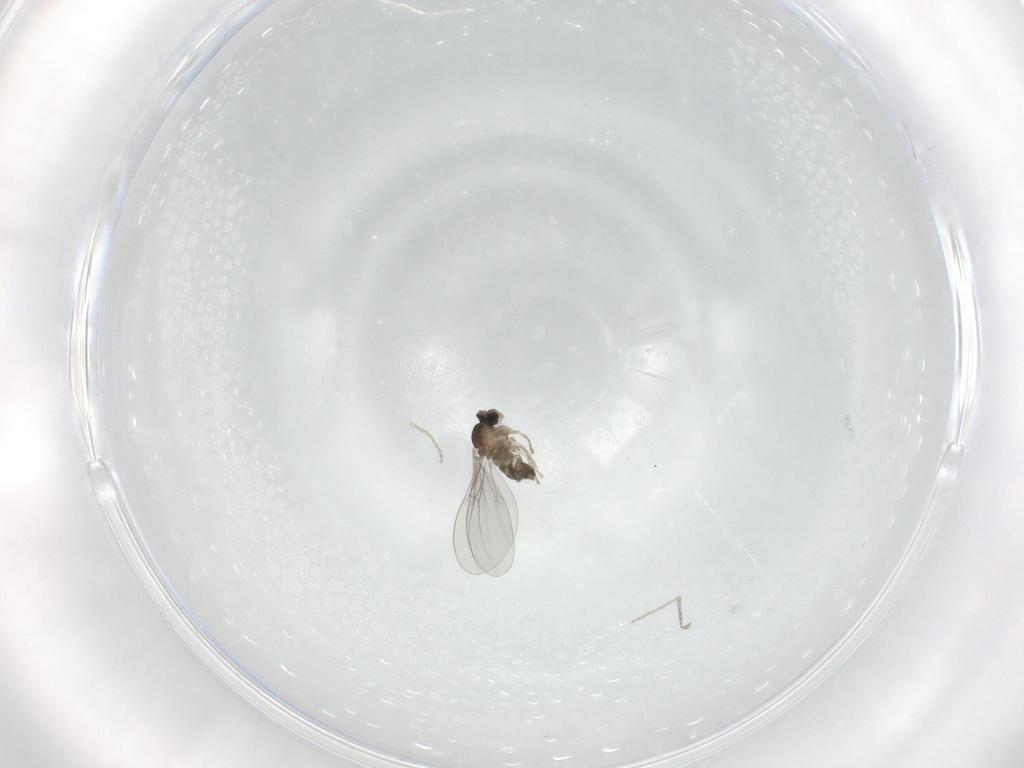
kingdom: Animalia
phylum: Arthropoda
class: Insecta
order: Diptera
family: Cecidomyiidae
